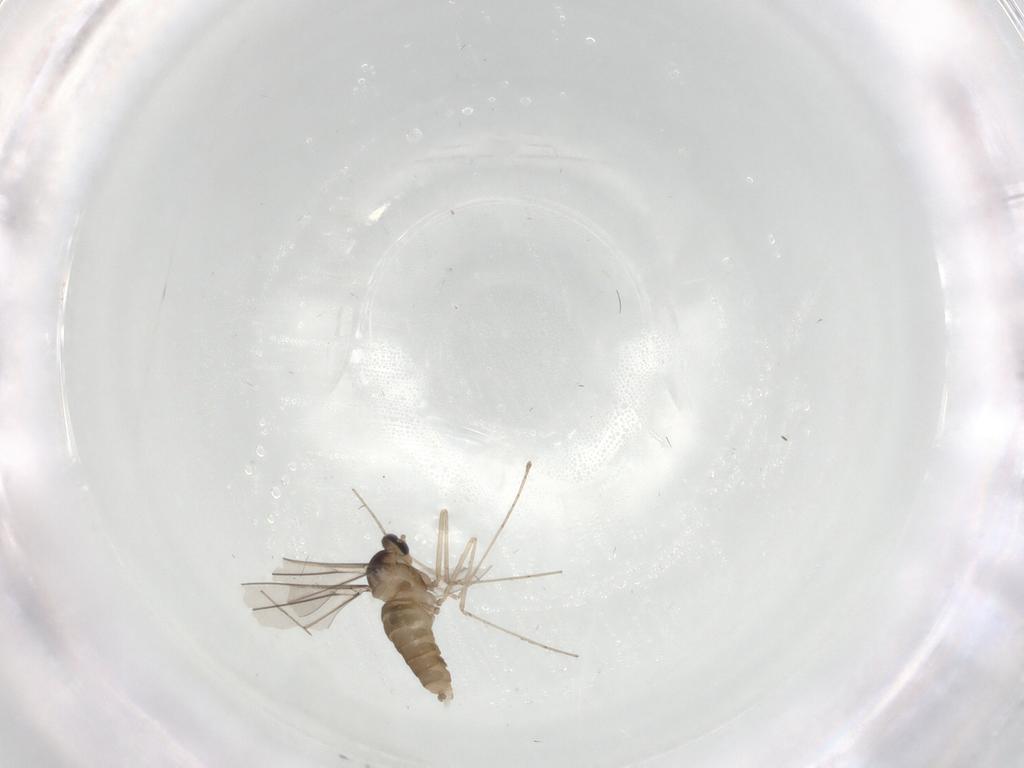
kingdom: Animalia
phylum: Arthropoda
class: Insecta
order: Diptera
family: Cecidomyiidae
